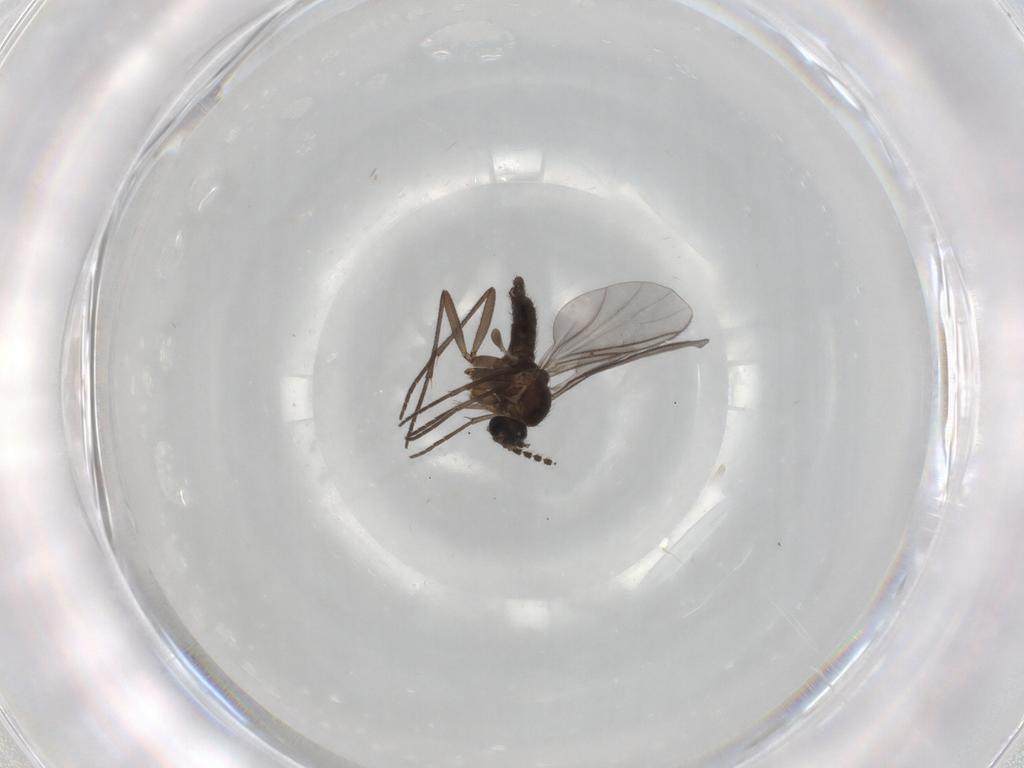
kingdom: Animalia
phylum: Arthropoda
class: Insecta
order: Diptera
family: Sciaridae
